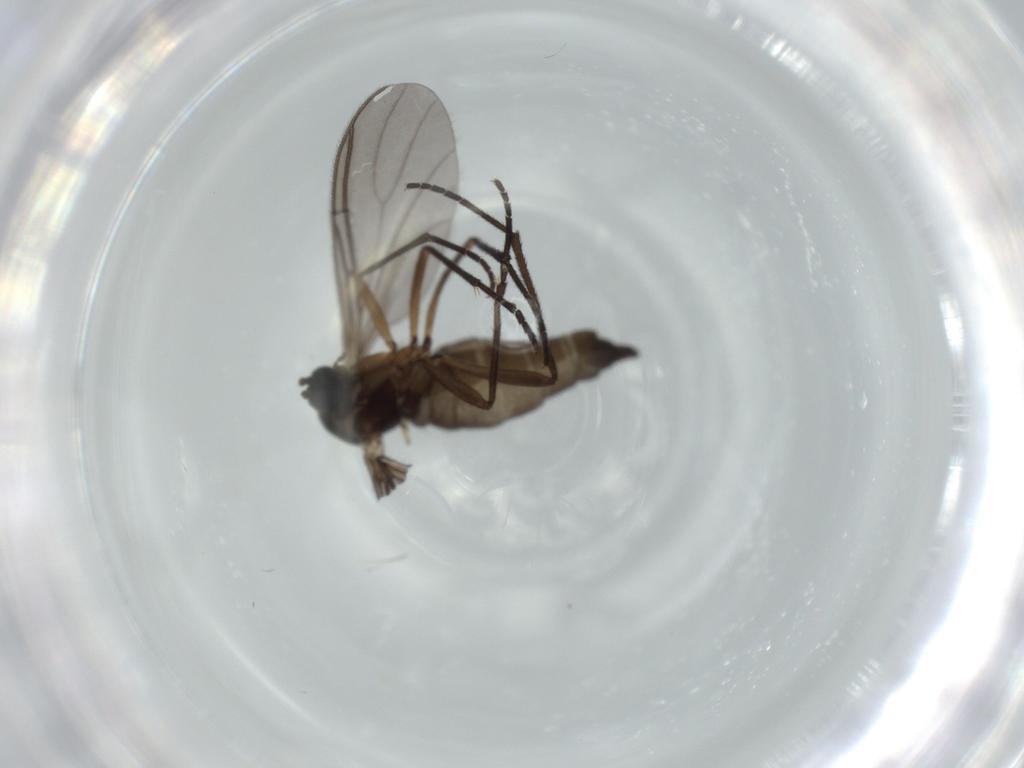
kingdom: Animalia
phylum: Arthropoda
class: Insecta
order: Diptera
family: Sciaridae
